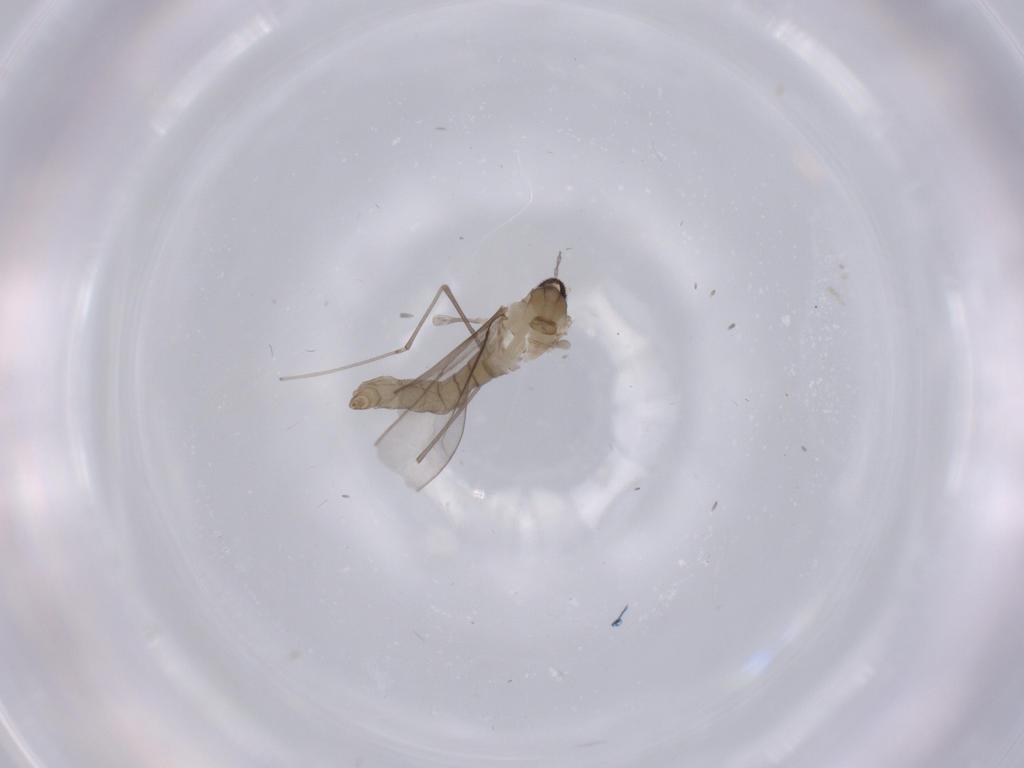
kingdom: Animalia
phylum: Arthropoda
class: Insecta
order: Diptera
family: Cecidomyiidae
